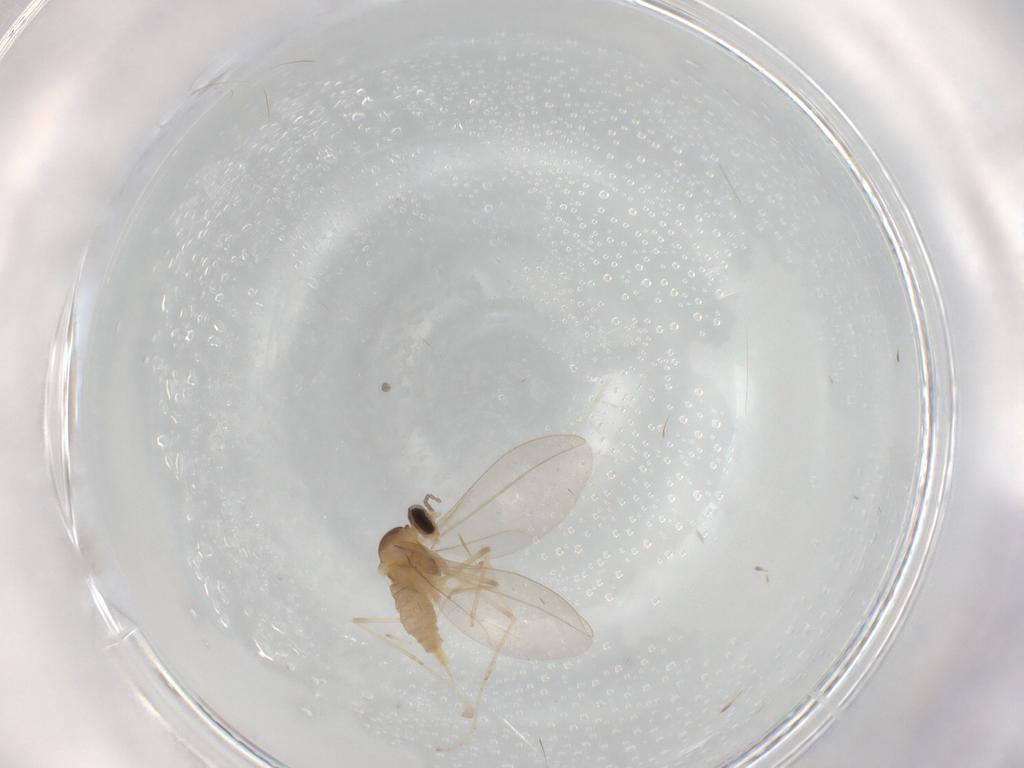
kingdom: Animalia
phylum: Arthropoda
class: Insecta
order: Diptera
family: Cecidomyiidae
